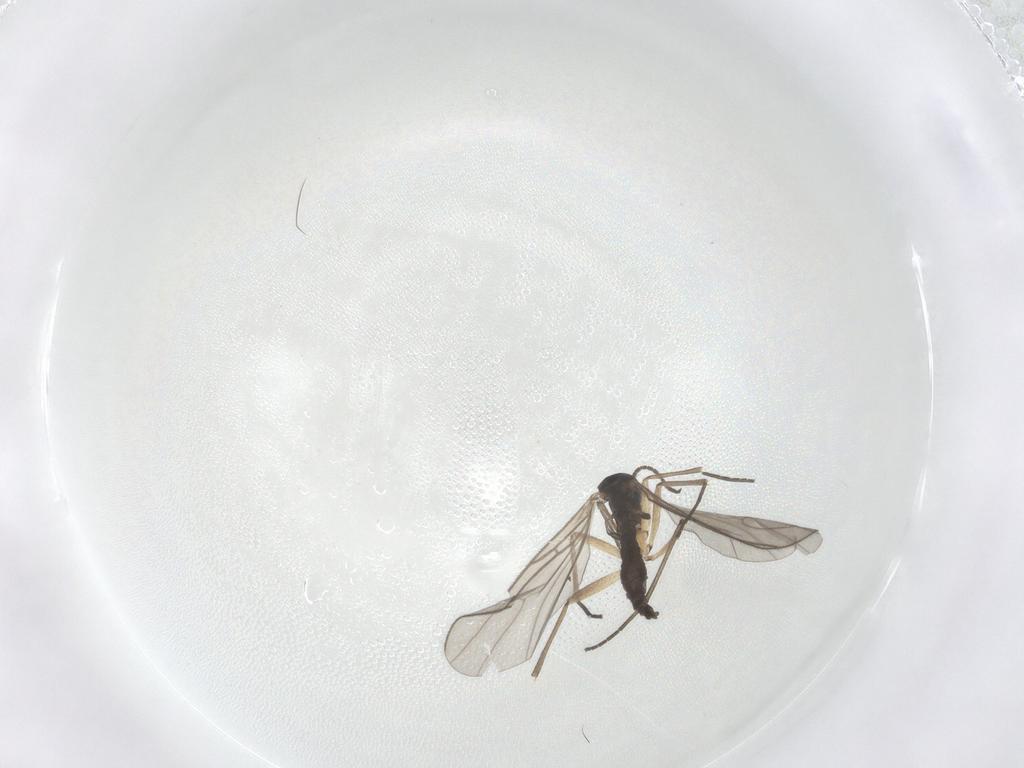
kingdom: Animalia
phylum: Arthropoda
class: Insecta
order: Diptera
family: Sciaridae
